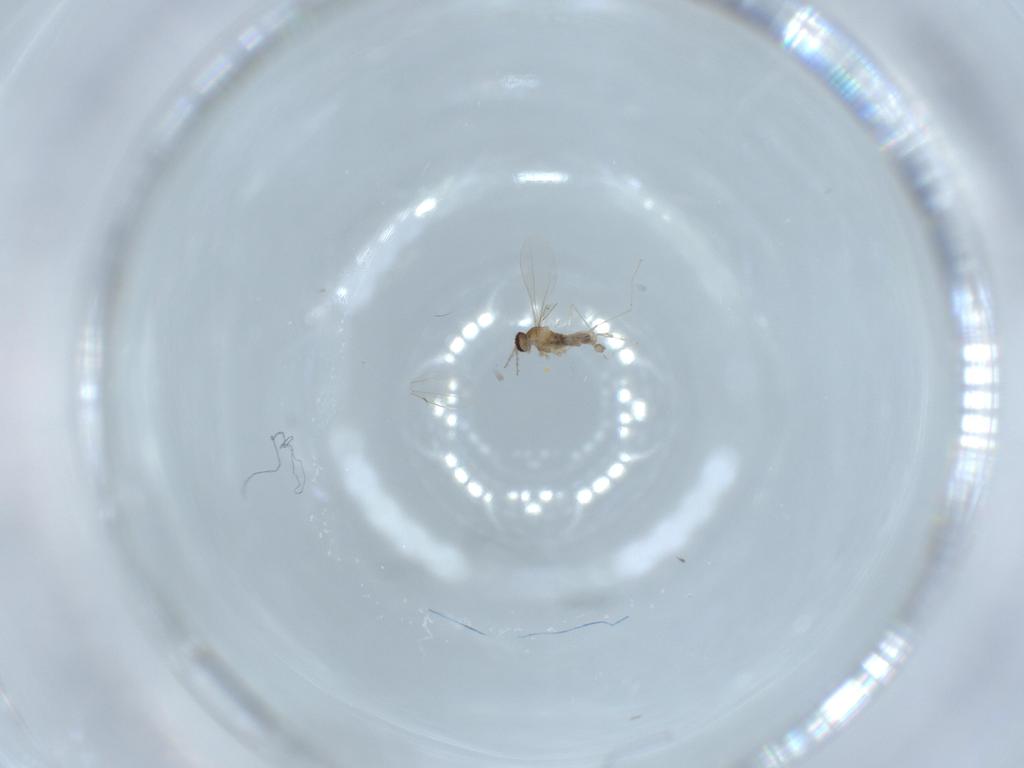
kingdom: Animalia
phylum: Arthropoda
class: Insecta
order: Diptera
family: Cecidomyiidae
